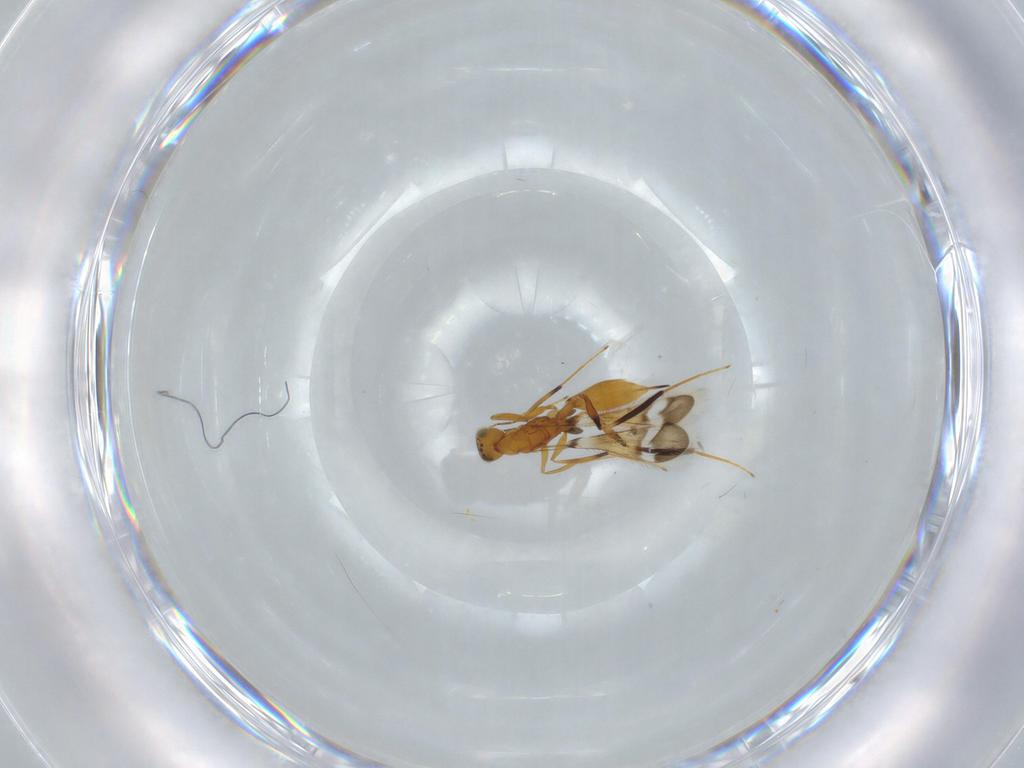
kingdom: Animalia
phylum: Arthropoda
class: Insecta
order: Hymenoptera
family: Mymaridae
